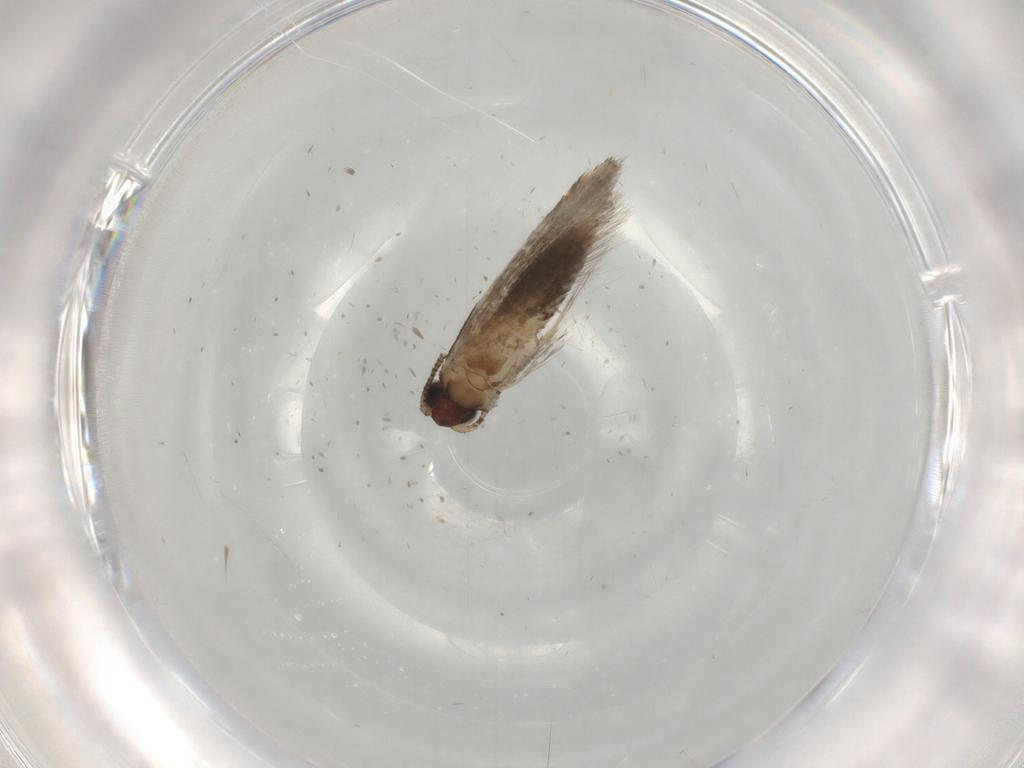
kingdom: Animalia
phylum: Arthropoda
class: Insecta
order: Lepidoptera
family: Tineidae
